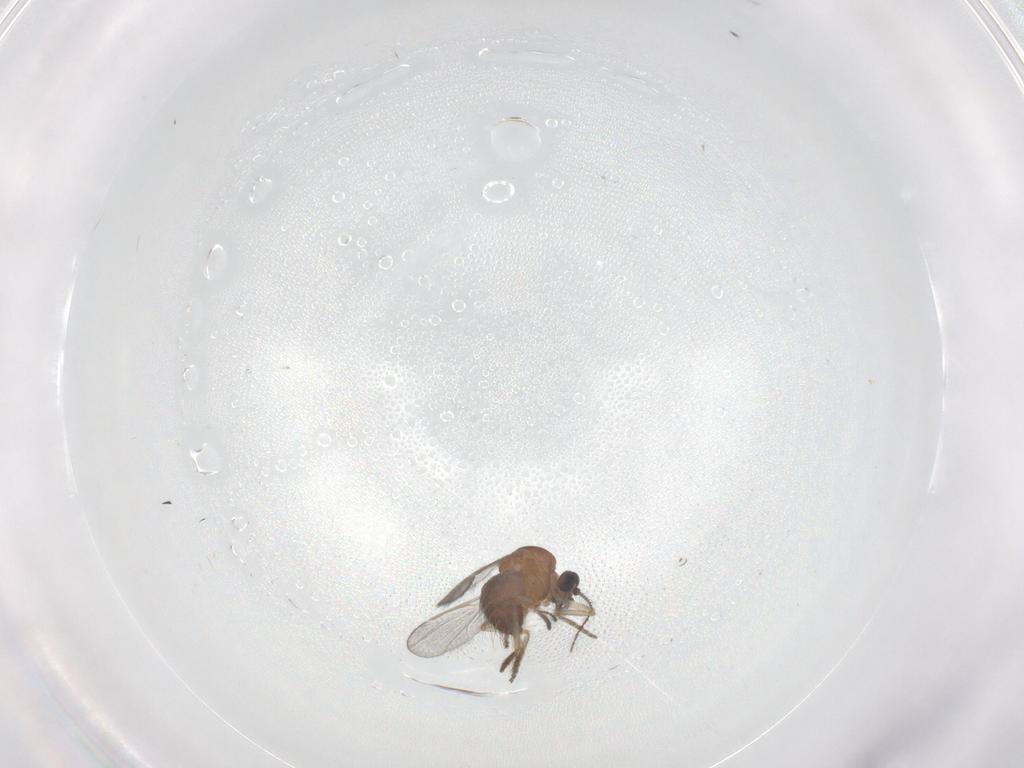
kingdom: Animalia
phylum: Arthropoda
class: Insecta
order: Diptera
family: Ceratopogonidae
